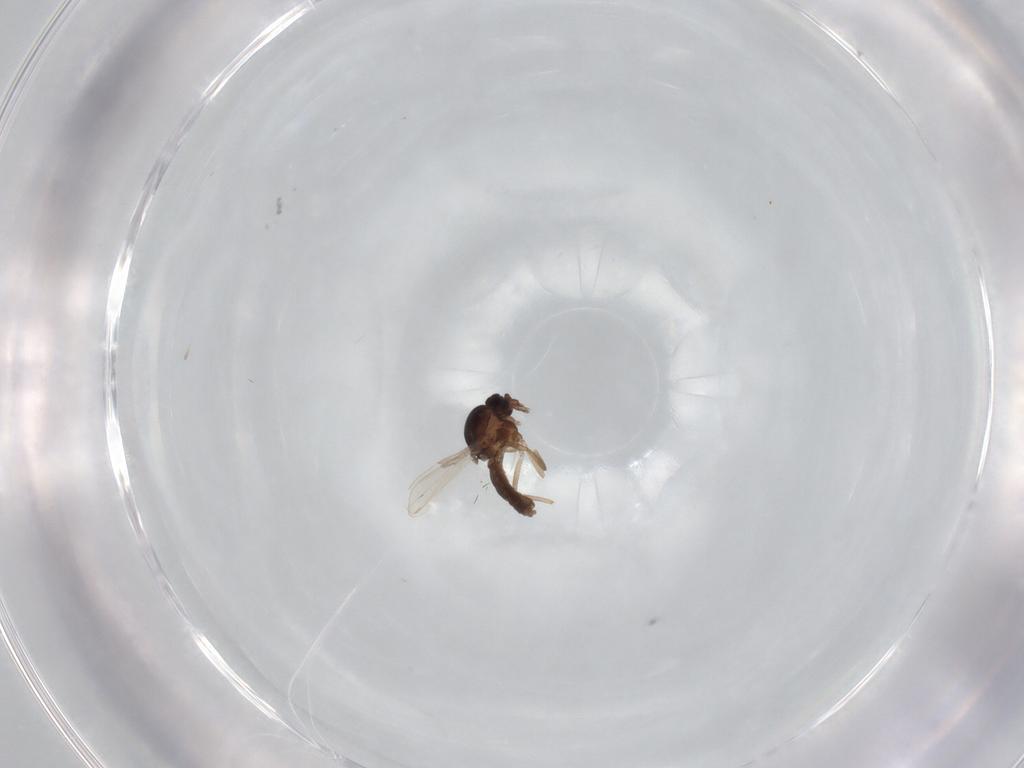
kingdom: Animalia
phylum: Arthropoda
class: Insecta
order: Diptera
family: Ceratopogonidae
